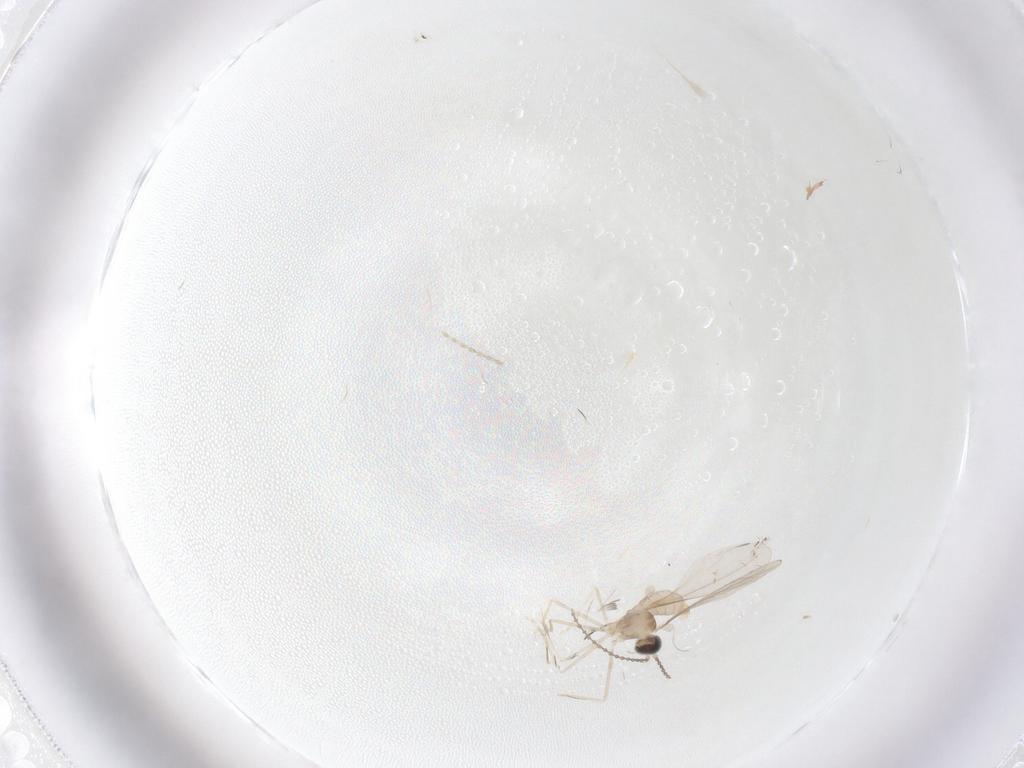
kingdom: Animalia
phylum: Arthropoda
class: Insecta
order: Diptera
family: Cecidomyiidae
